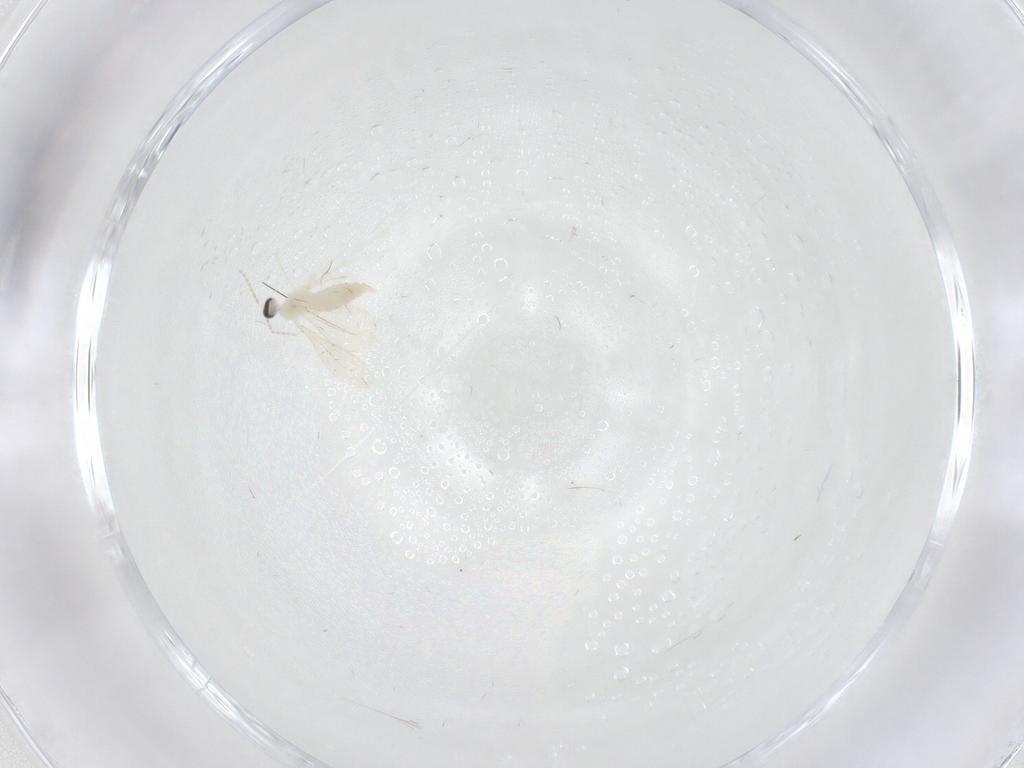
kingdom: Animalia
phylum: Arthropoda
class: Insecta
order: Diptera
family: Cecidomyiidae
